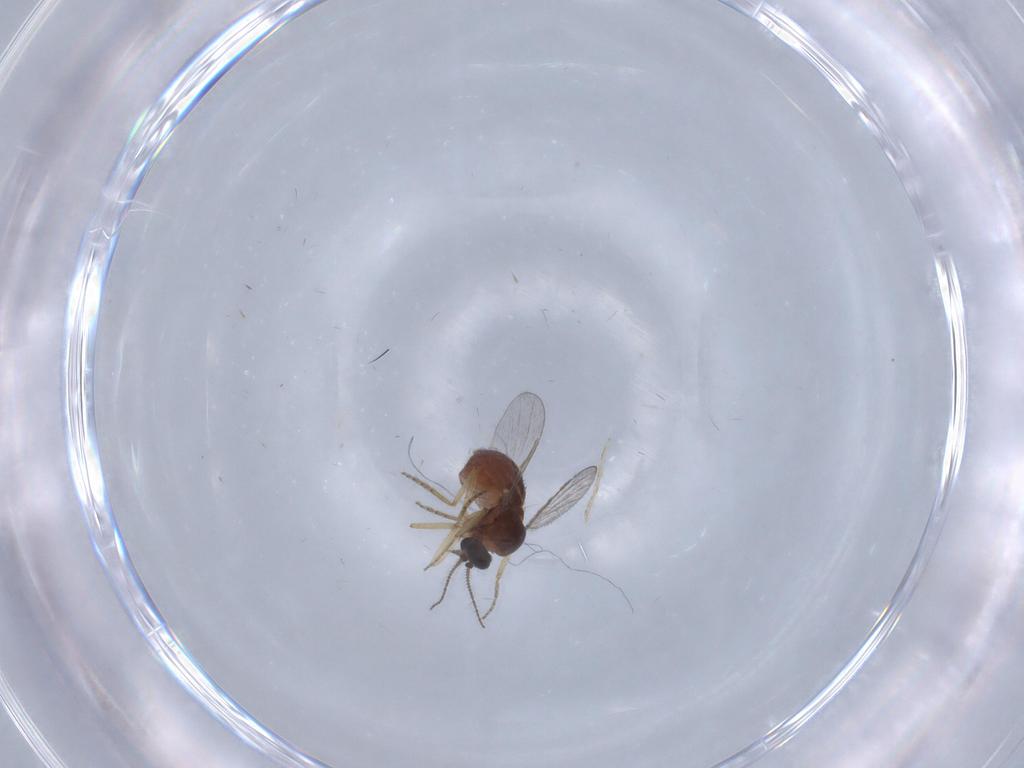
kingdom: Animalia
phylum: Arthropoda
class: Insecta
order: Diptera
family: Ceratopogonidae
